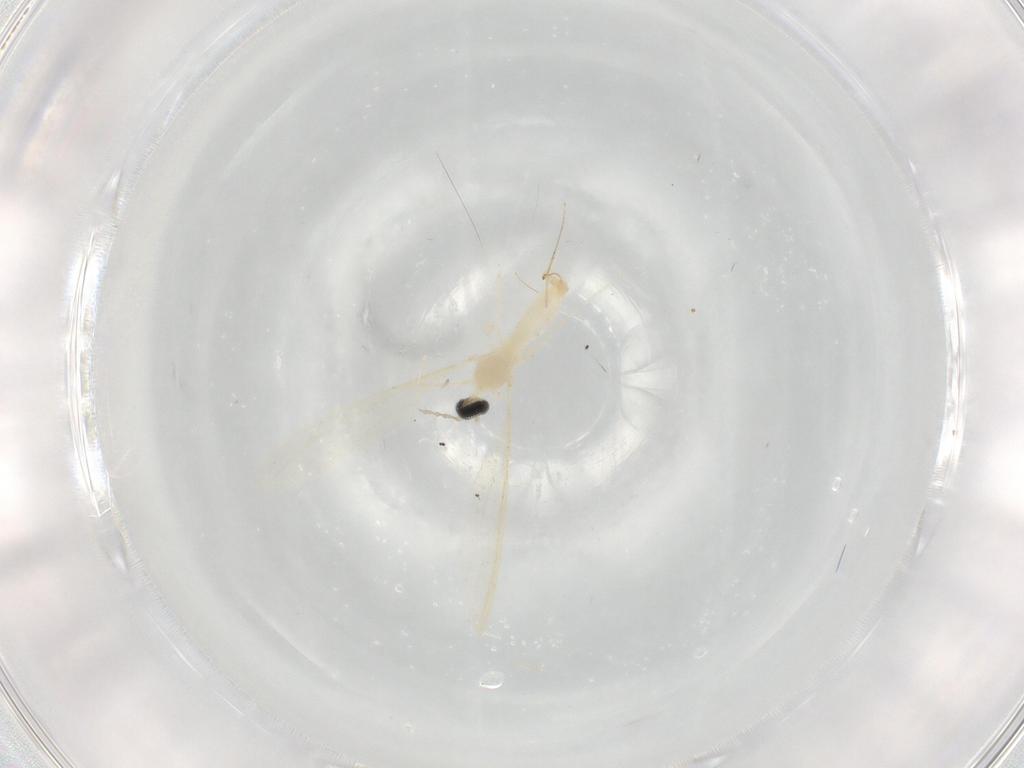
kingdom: Animalia
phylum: Arthropoda
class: Insecta
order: Diptera
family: Cecidomyiidae
